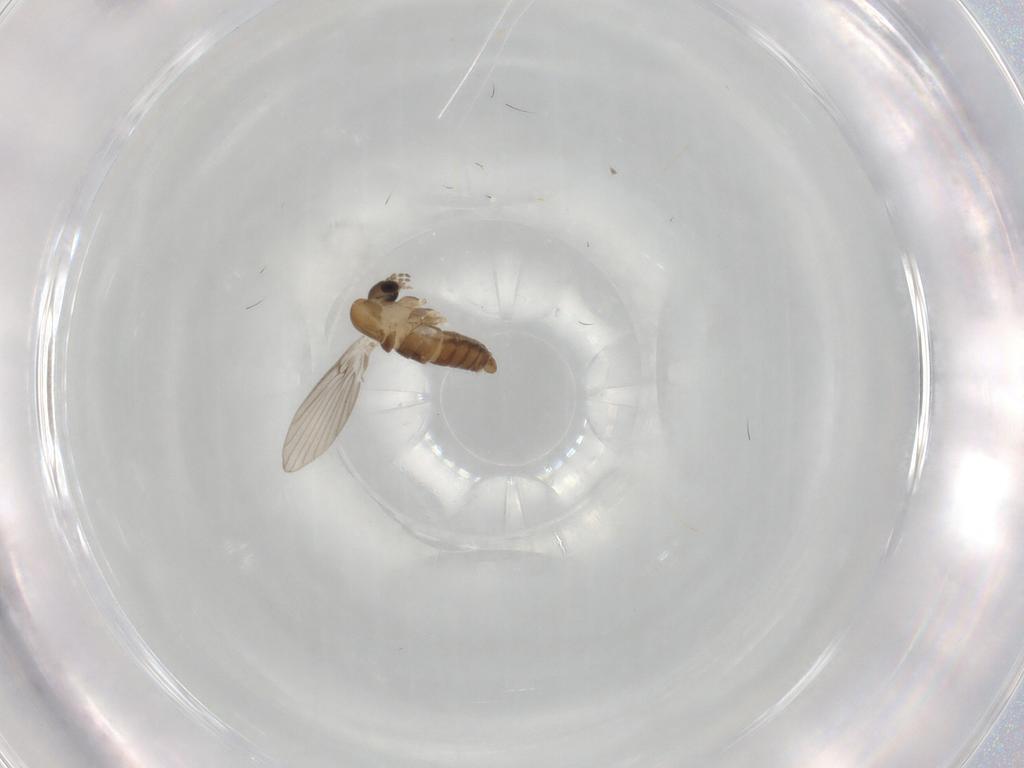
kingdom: Animalia
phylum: Arthropoda
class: Insecta
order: Diptera
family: Psychodidae
